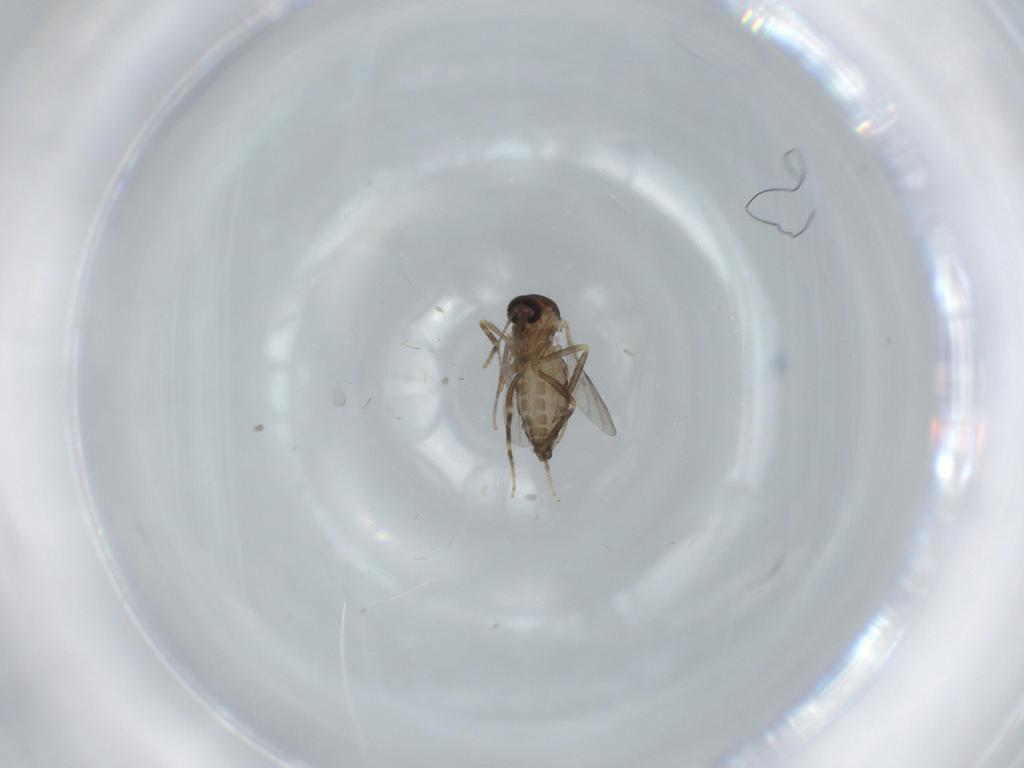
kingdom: Animalia
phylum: Arthropoda
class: Insecta
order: Diptera
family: Ceratopogonidae
